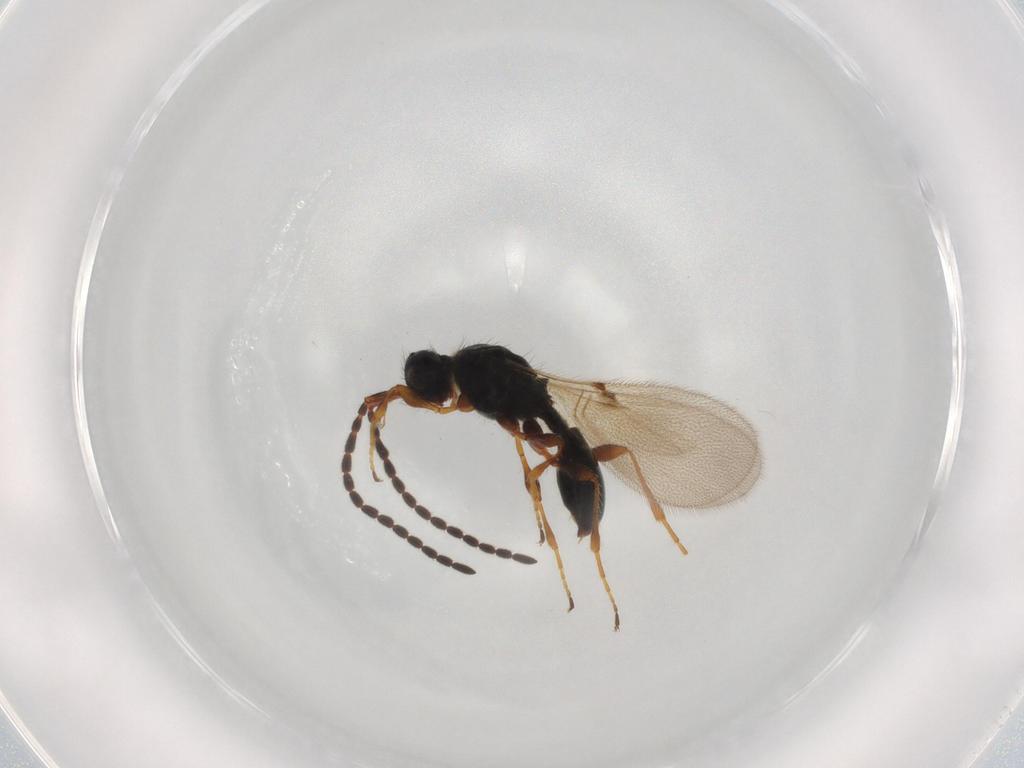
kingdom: Animalia
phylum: Arthropoda
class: Insecta
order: Hymenoptera
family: Diapriidae
